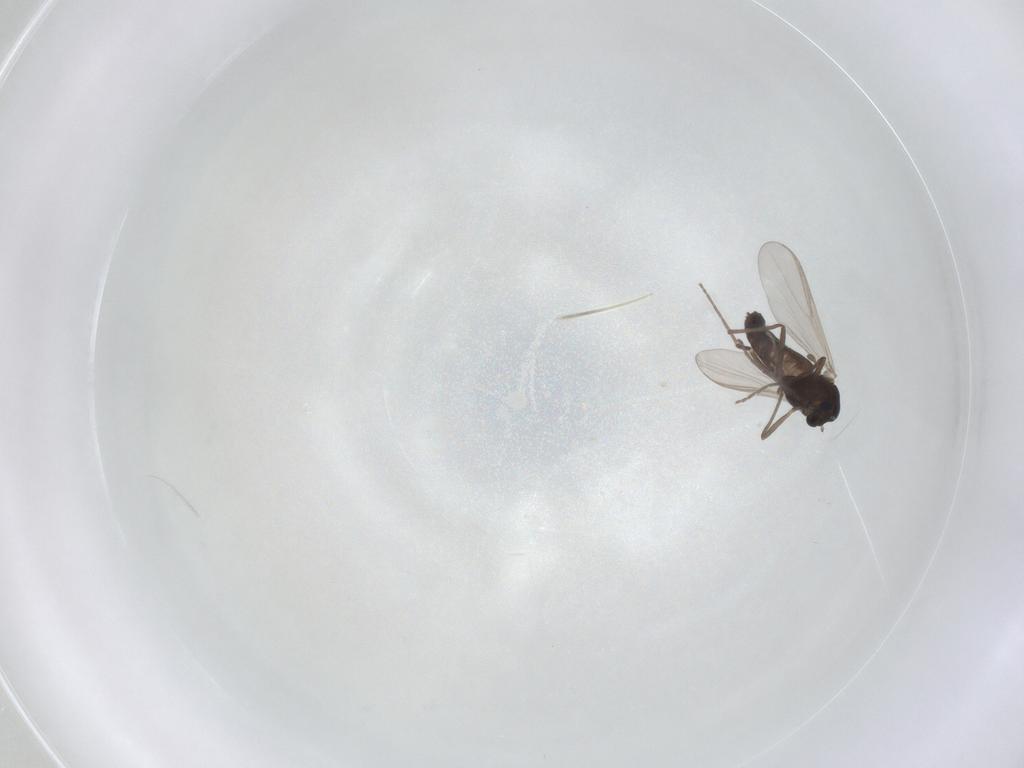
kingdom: Animalia
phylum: Arthropoda
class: Insecta
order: Diptera
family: Chironomidae
